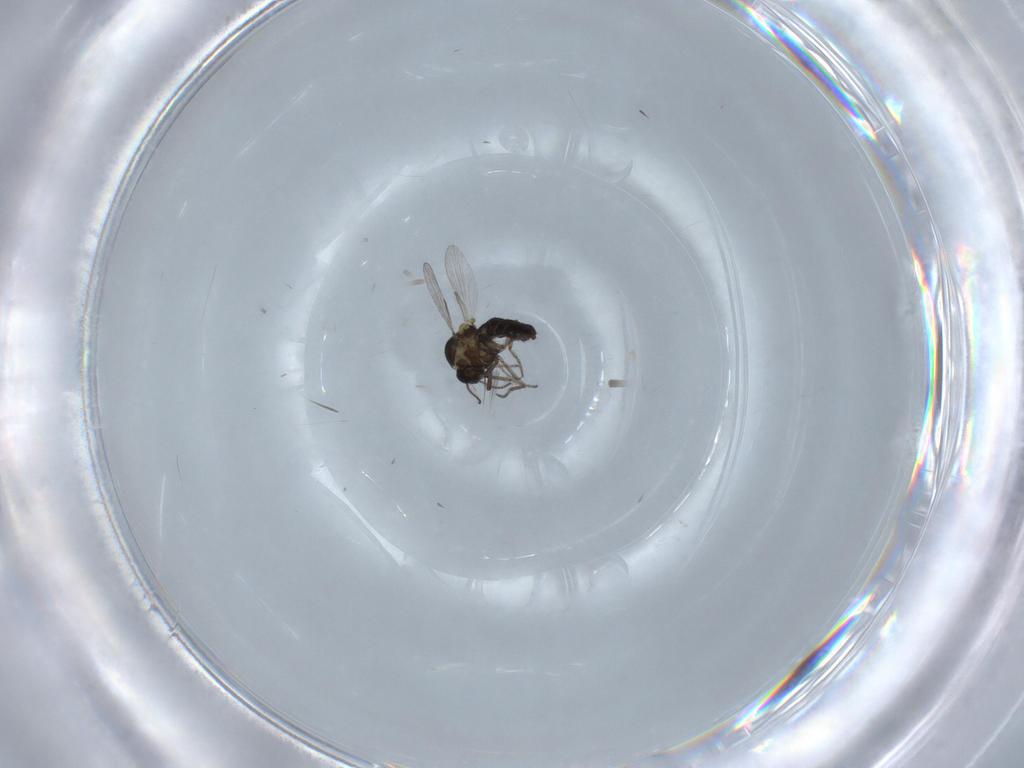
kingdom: Animalia
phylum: Arthropoda
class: Insecta
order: Diptera
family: Ceratopogonidae
